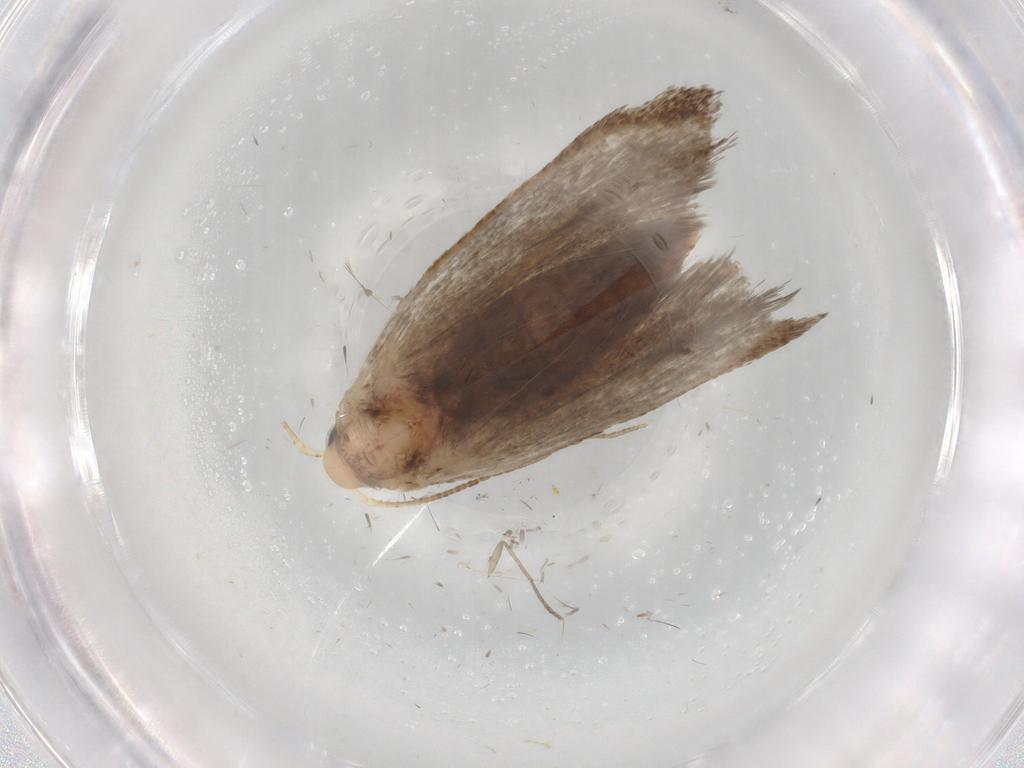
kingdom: Animalia
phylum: Arthropoda
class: Insecta
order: Lepidoptera
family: Oecophoridae
